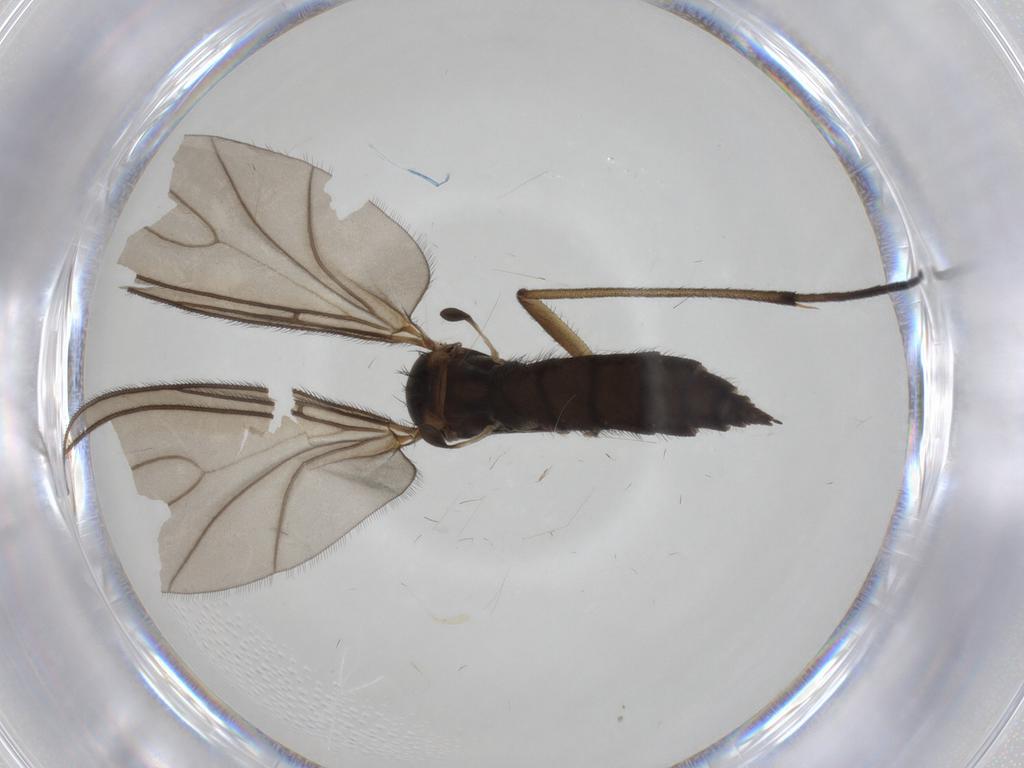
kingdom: Animalia
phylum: Arthropoda
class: Insecta
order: Diptera
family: Sciaridae
